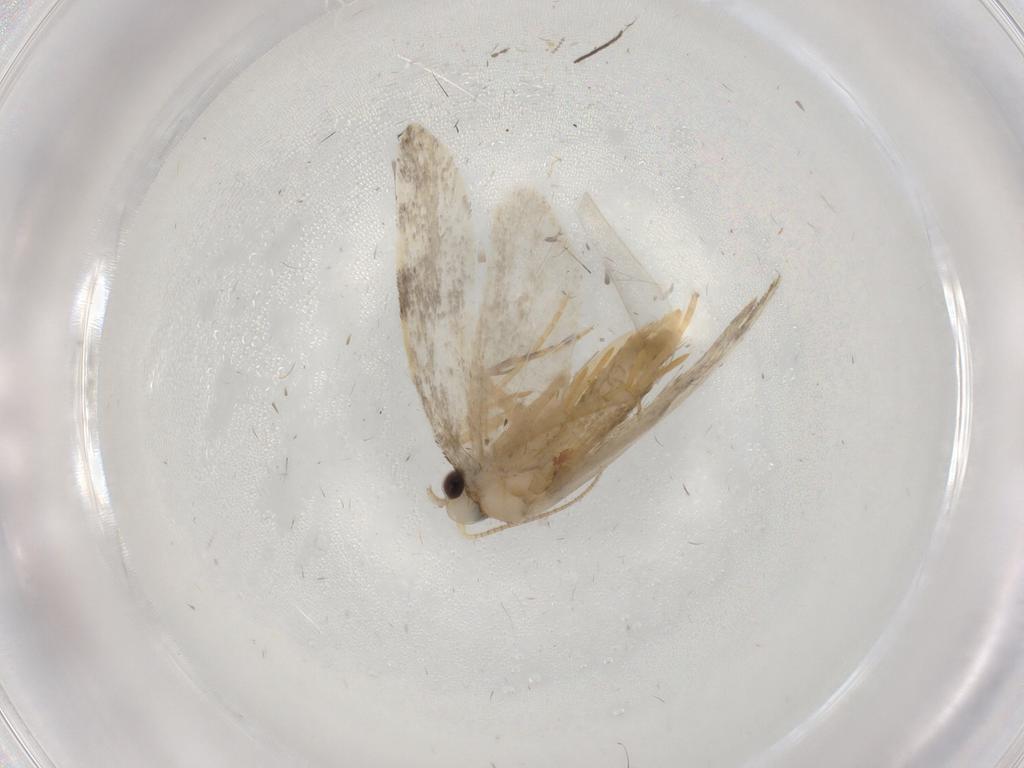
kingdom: Animalia
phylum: Arthropoda
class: Insecta
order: Lepidoptera
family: Psychidae
